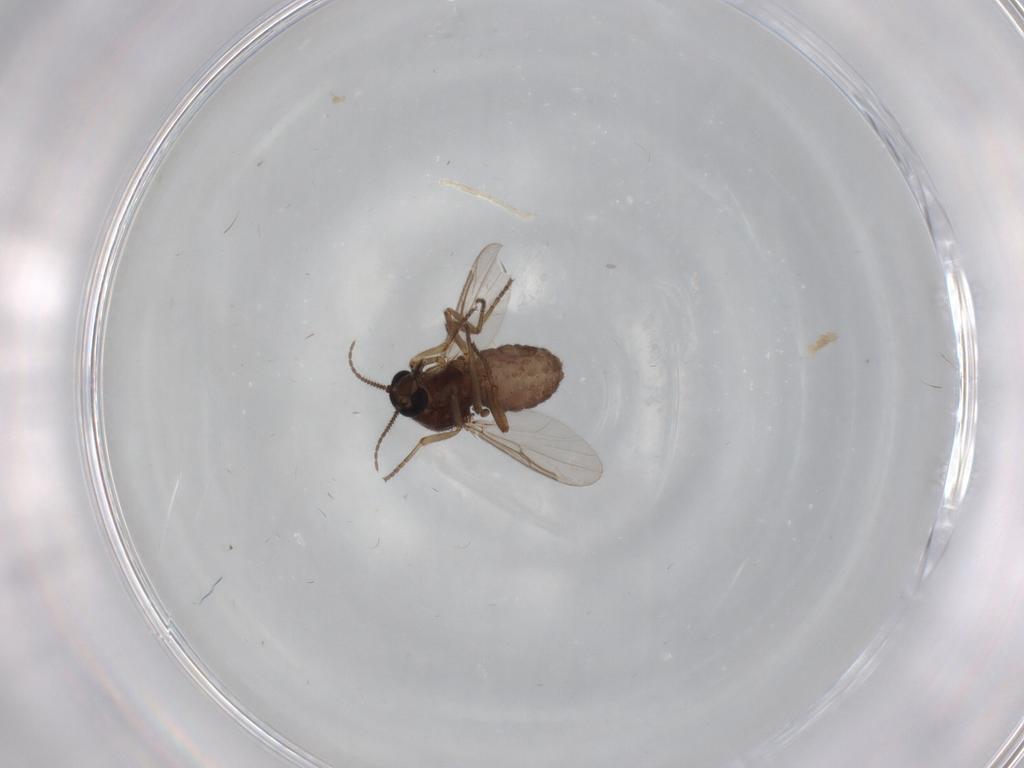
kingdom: Animalia
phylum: Arthropoda
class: Insecta
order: Diptera
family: Ceratopogonidae
